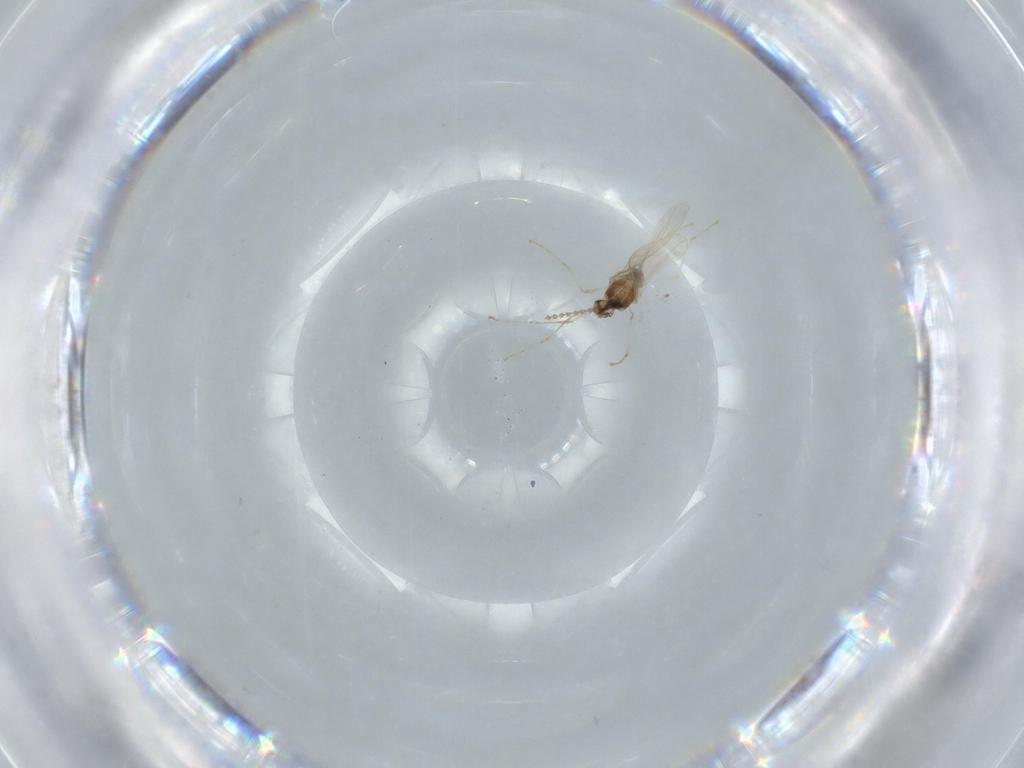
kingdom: Animalia
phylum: Arthropoda
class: Insecta
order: Diptera
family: Cecidomyiidae
